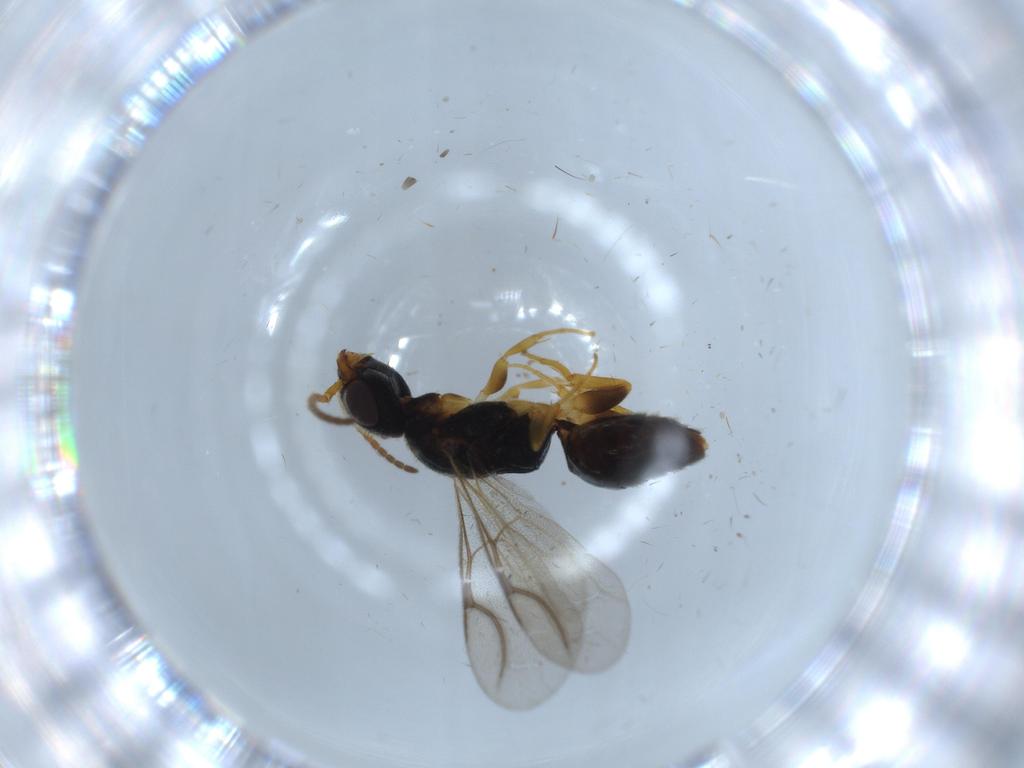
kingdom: Animalia
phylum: Arthropoda
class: Insecta
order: Hymenoptera
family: Bethylidae
